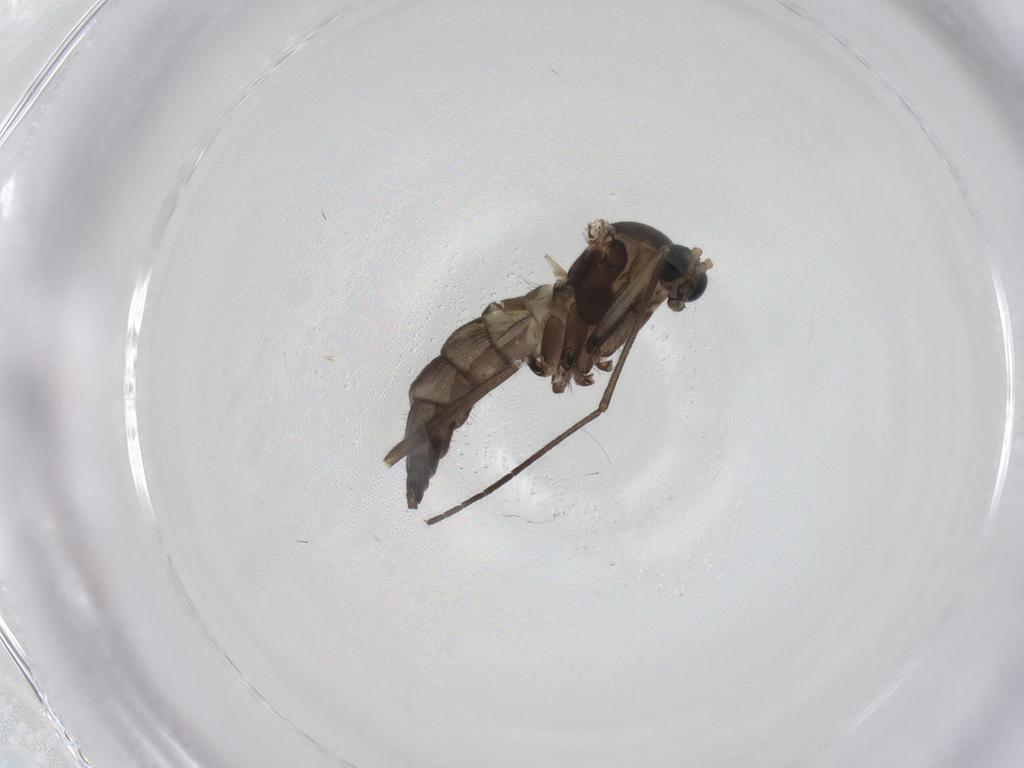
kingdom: Animalia
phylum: Arthropoda
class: Insecta
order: Diptera
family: Sciaridae
